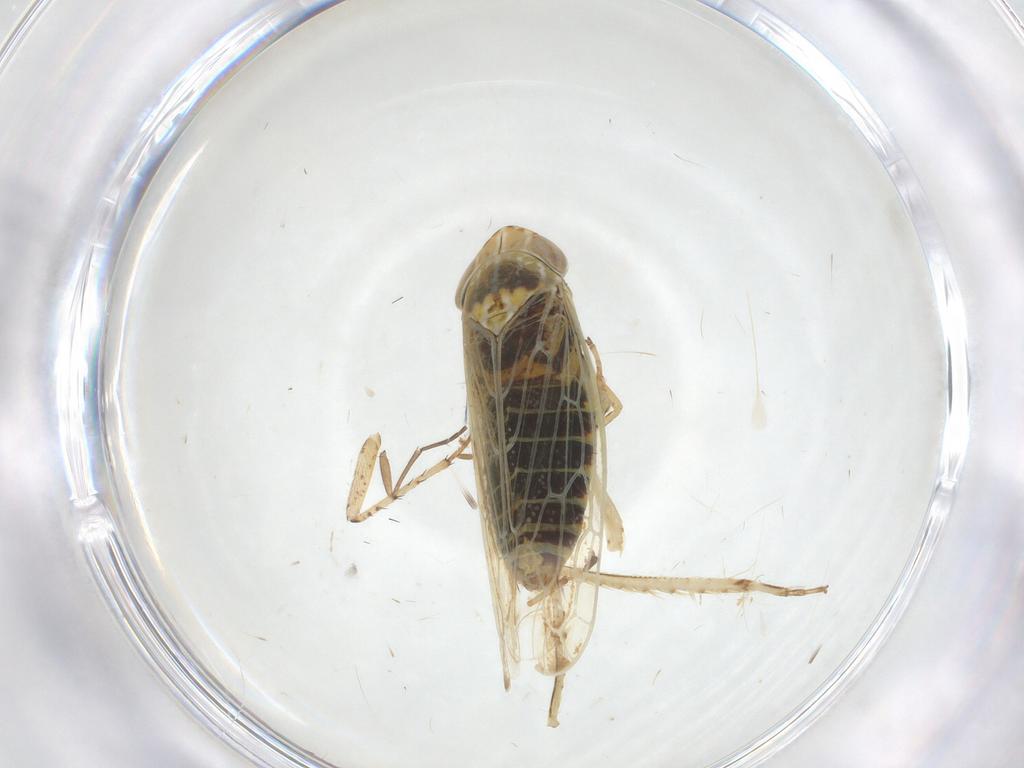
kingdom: Animalia
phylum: Arthropoda
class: Insecta
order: Hemiptera
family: Cicadellidae
